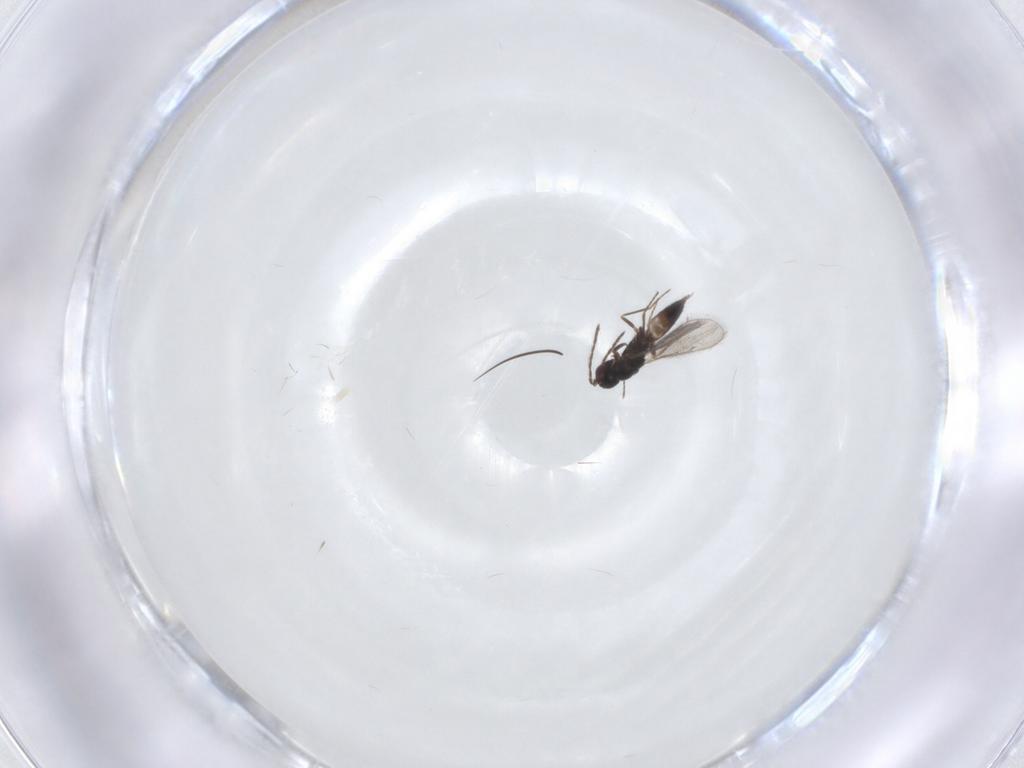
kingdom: Animalia
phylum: Arthropoda
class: Insecta
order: Hymenoptera
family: Eulophidae
